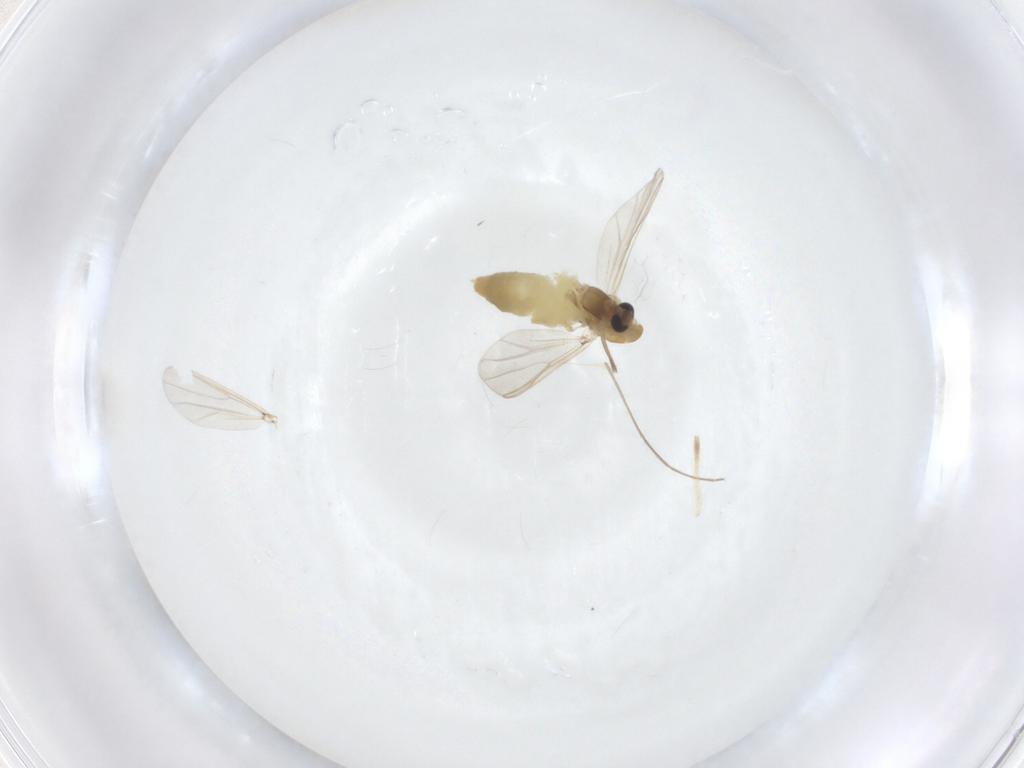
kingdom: Animalia
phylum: Arthropoda
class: Insecta
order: Diptera
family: Chironomidae
